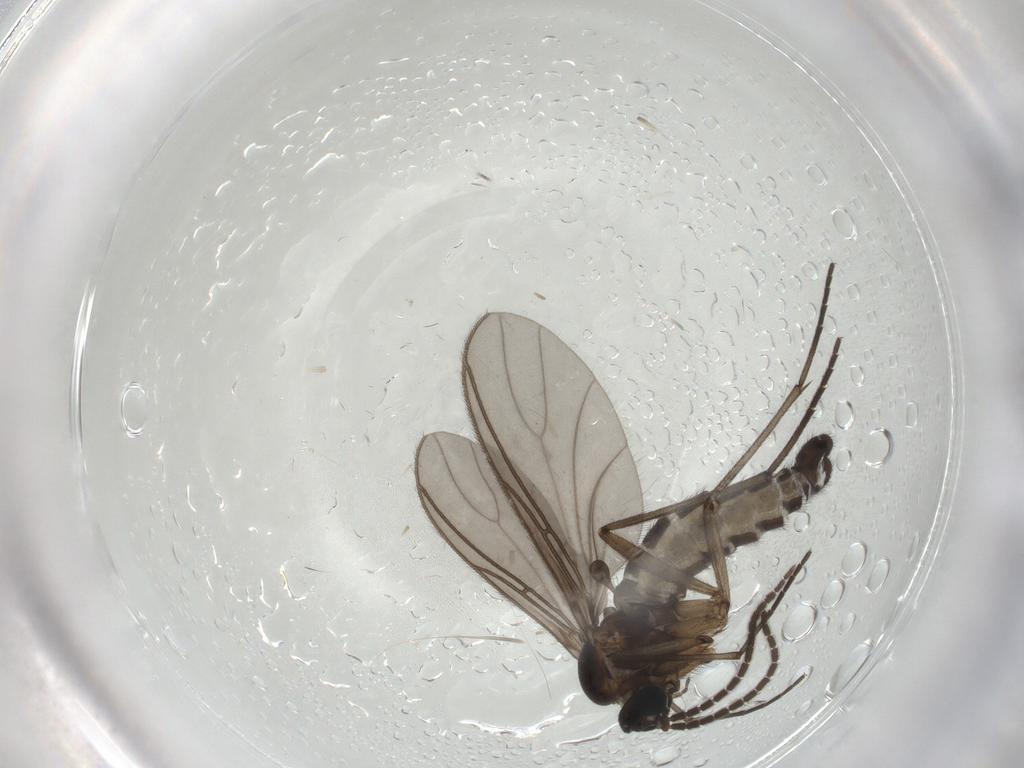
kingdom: Animalia
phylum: Arthropoda
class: Insecta
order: Diptera
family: Sciaridae
